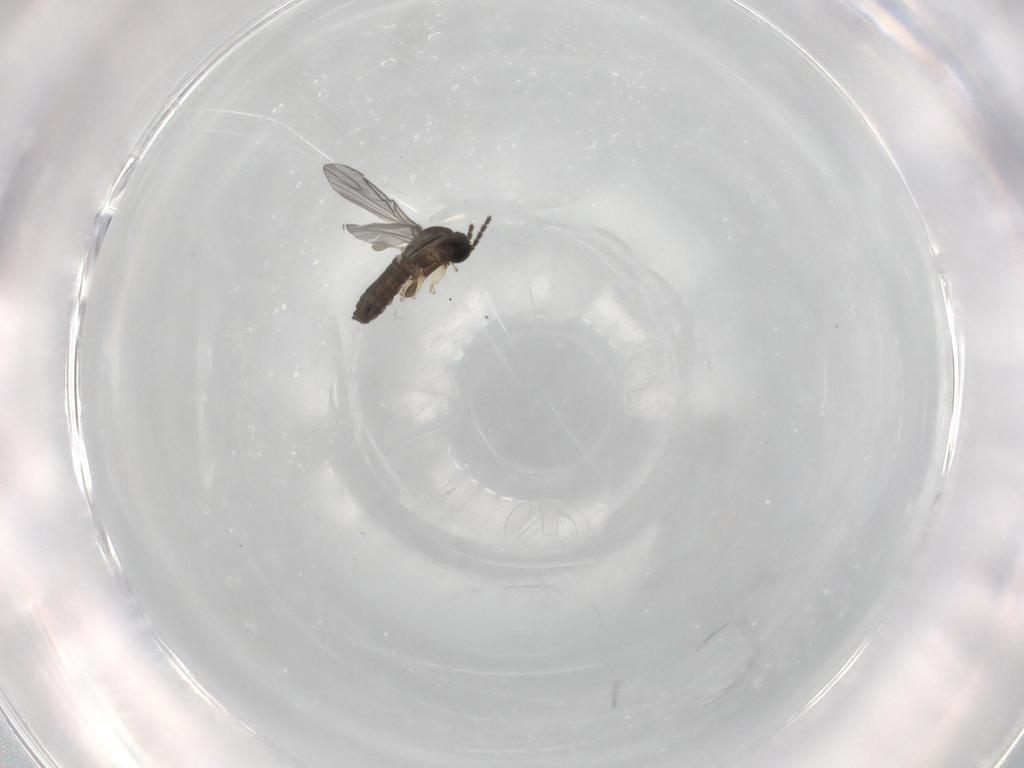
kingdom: Animalia
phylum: Arthropoda
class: Insecta
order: Diptera
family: Sciaridae
